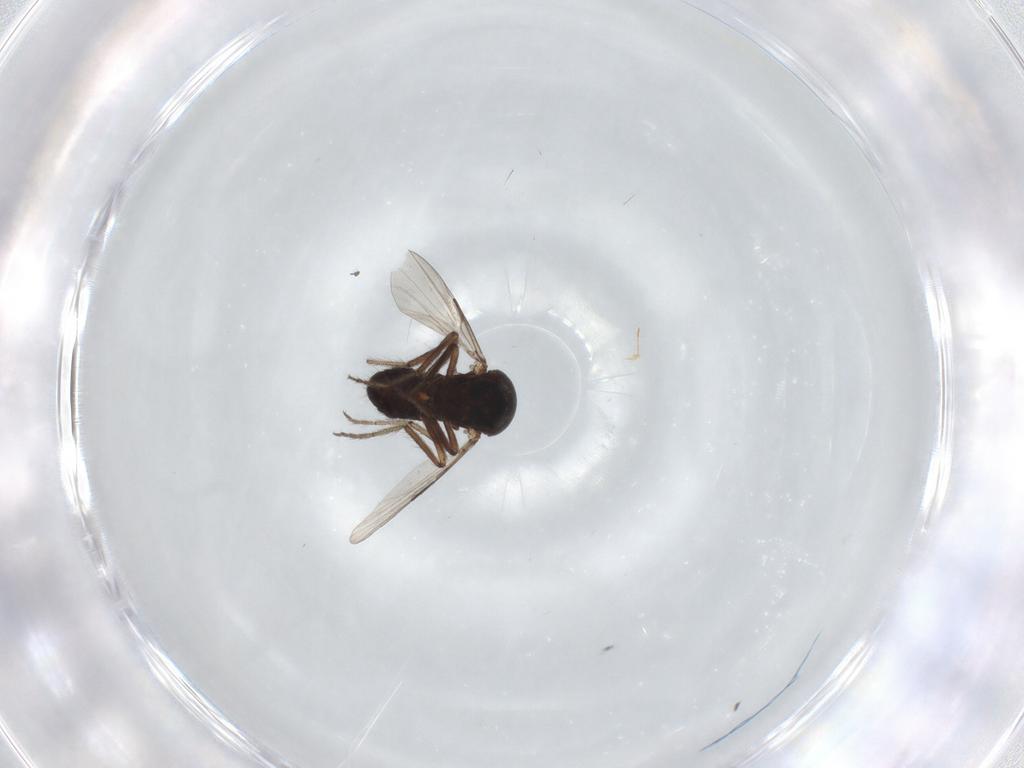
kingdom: Animalia
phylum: Arthropoda
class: Insecta
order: Diptera
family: Ceratopogonidae
